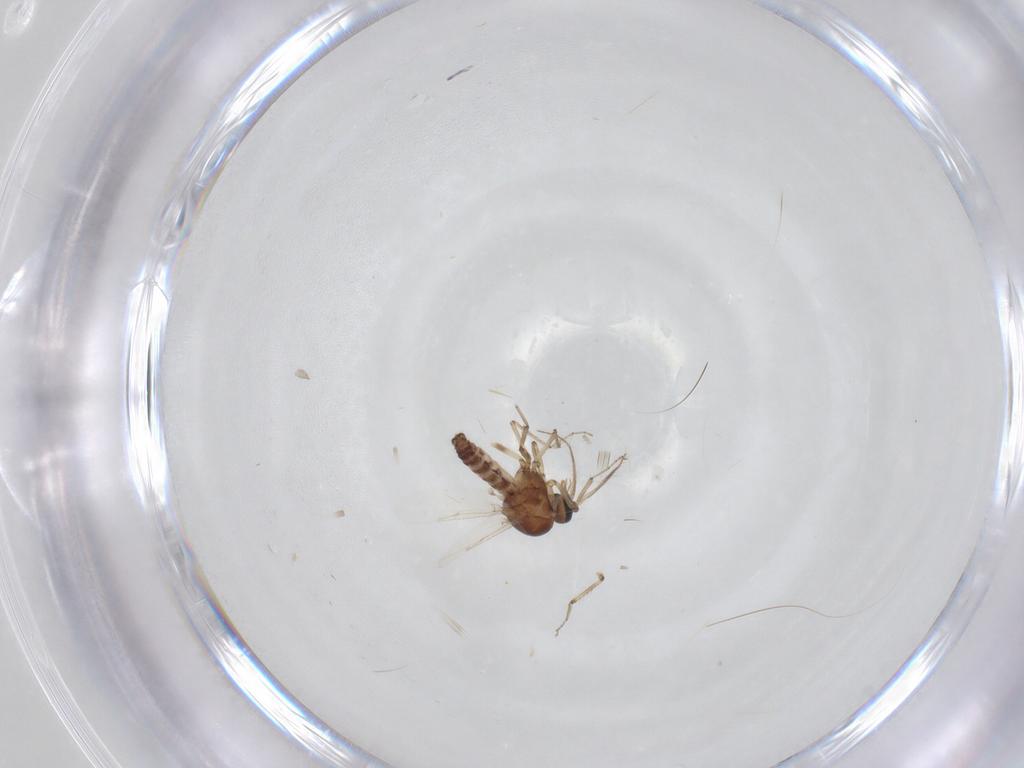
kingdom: Animalia
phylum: Arthropoda
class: Insecta
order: Diptera
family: Ceratopogonidae
